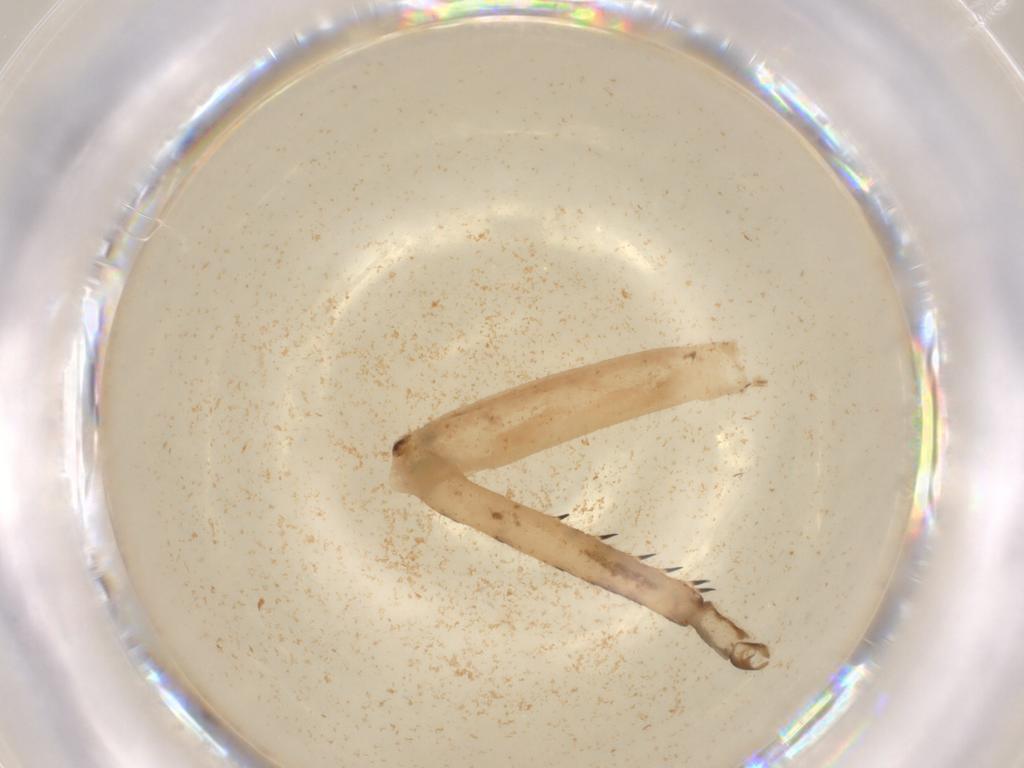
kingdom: Animalia
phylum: Arthropoda
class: Insecta
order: Orthoptera
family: Acrididae
